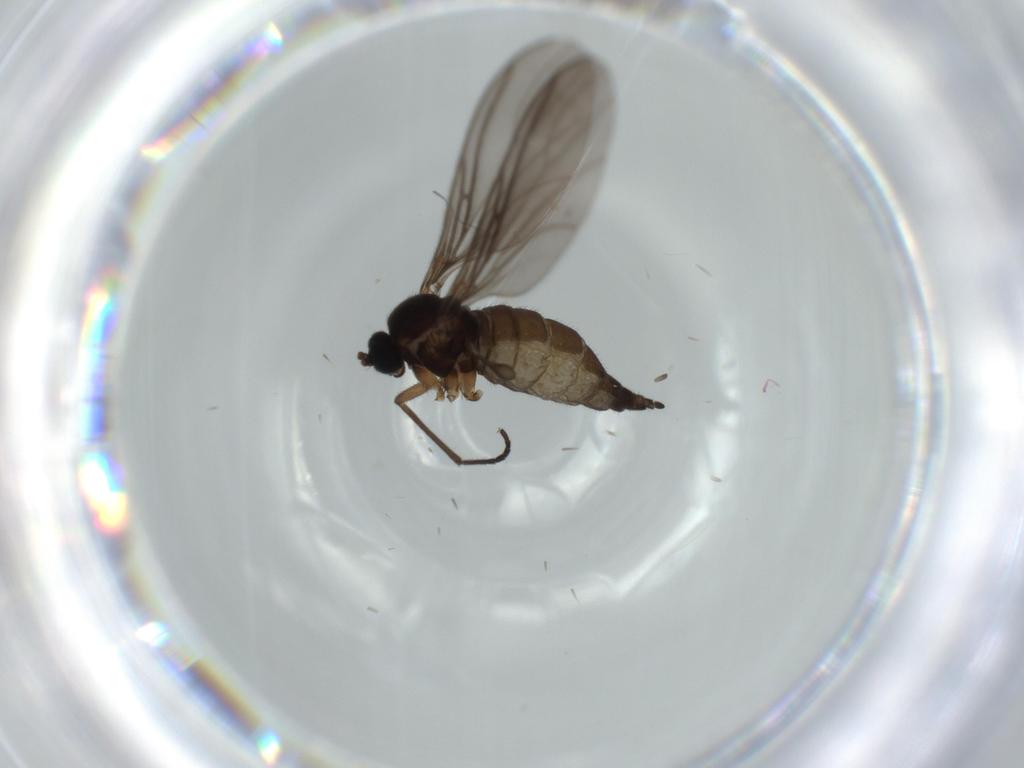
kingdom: Animalia
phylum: Arthropoda
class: Insecta
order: Diptera
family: Sciaridae
